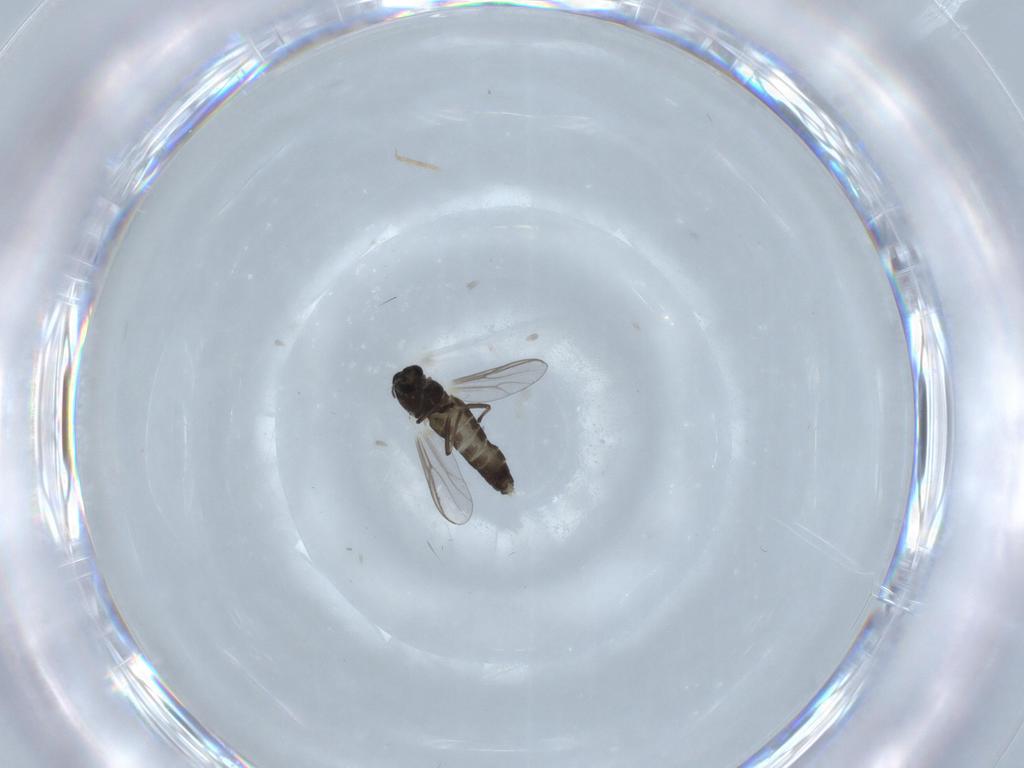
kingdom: Animalia
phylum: Arthropoda
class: Insecta
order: Diptera
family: Chironomidae
